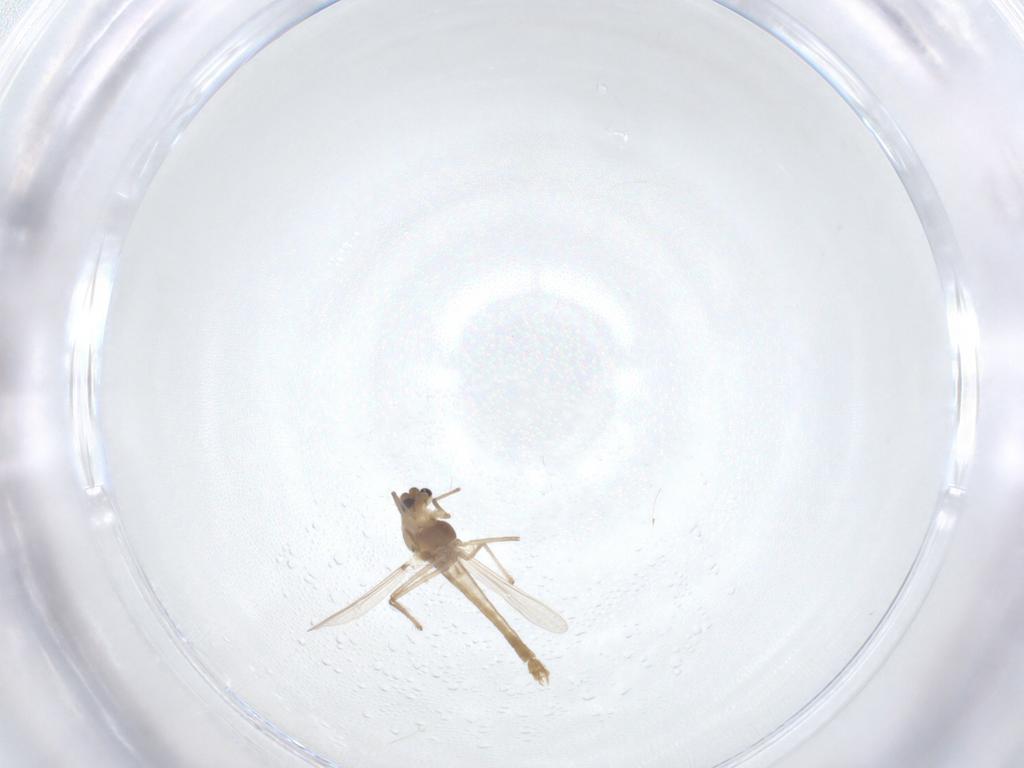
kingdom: Animalia
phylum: Arthropoda
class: Insecta
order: Diptera
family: Chironomidae
